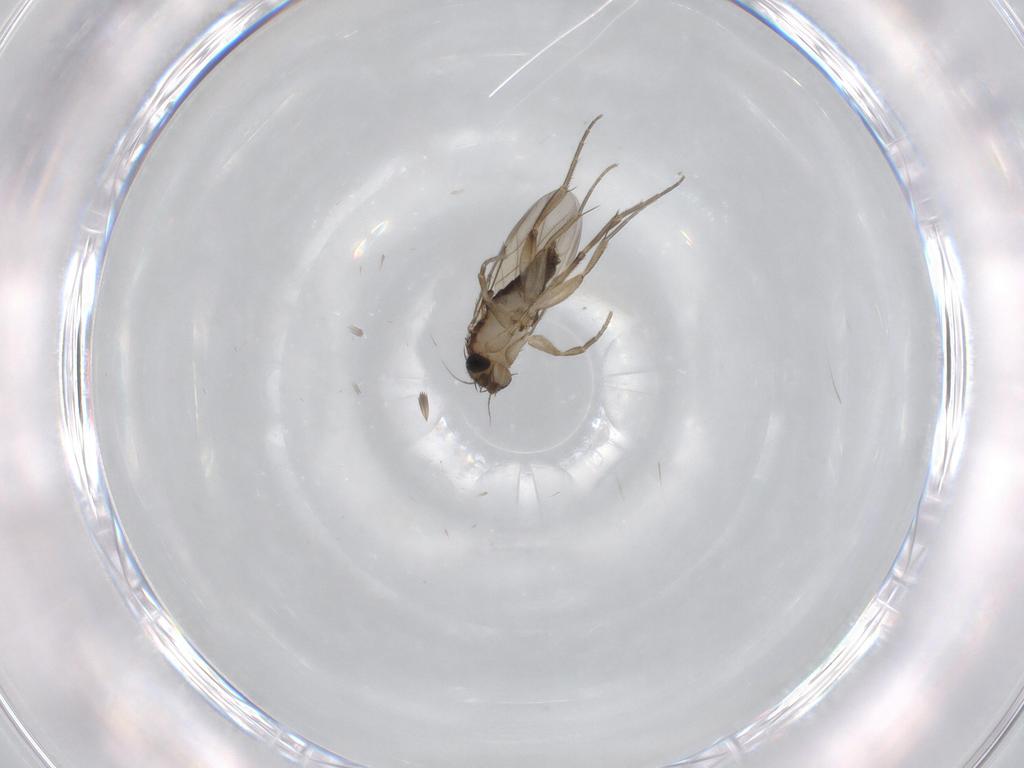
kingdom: Animalia
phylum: Arthropoda
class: Insecta
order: Diptera
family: Phoridae
